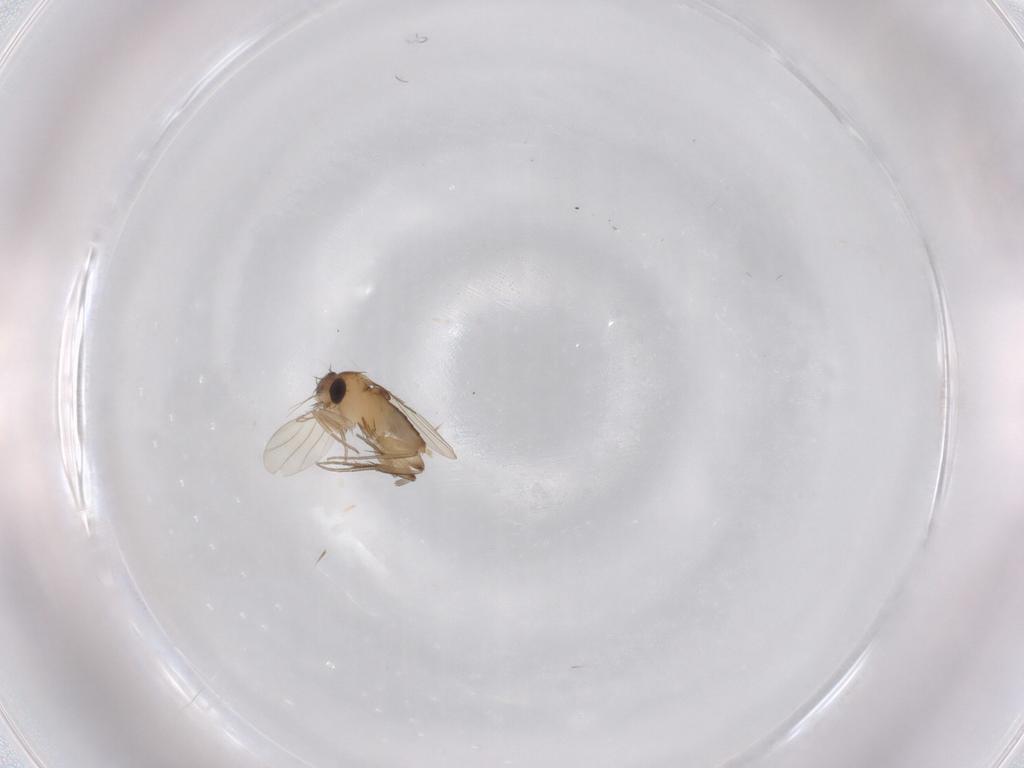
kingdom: Animalia
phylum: Arthropoda
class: Insecta
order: Diptera
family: Phoridae
